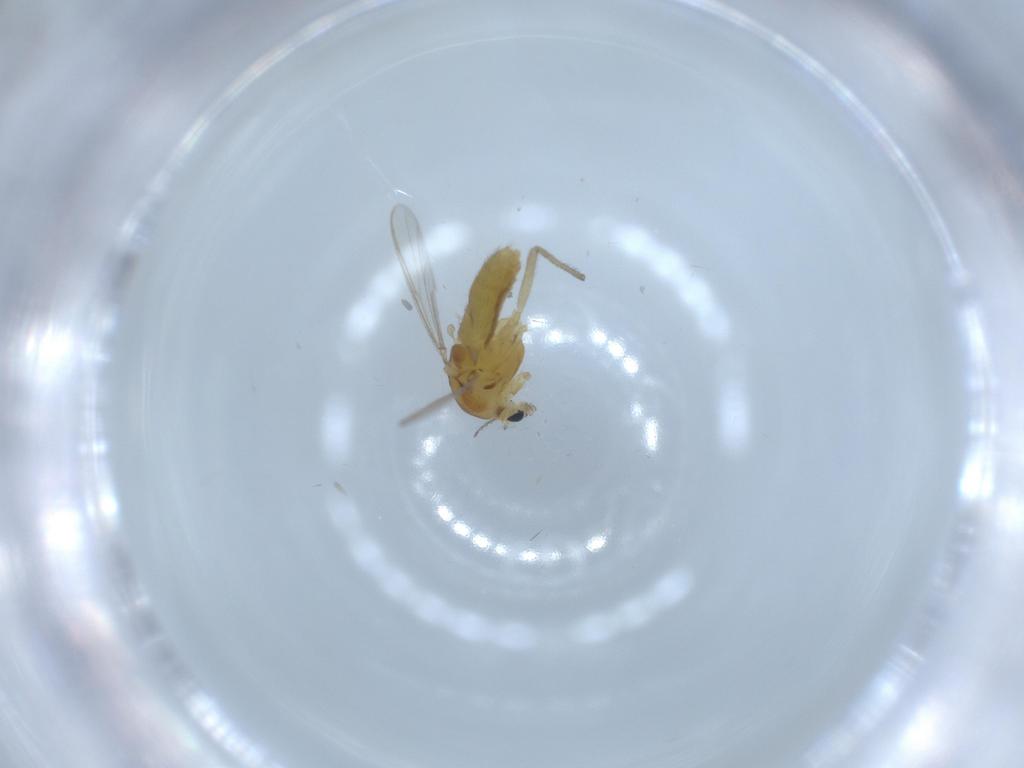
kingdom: Animalia
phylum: Arthropoda
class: Insecta
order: Diptera
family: Chironomidae
